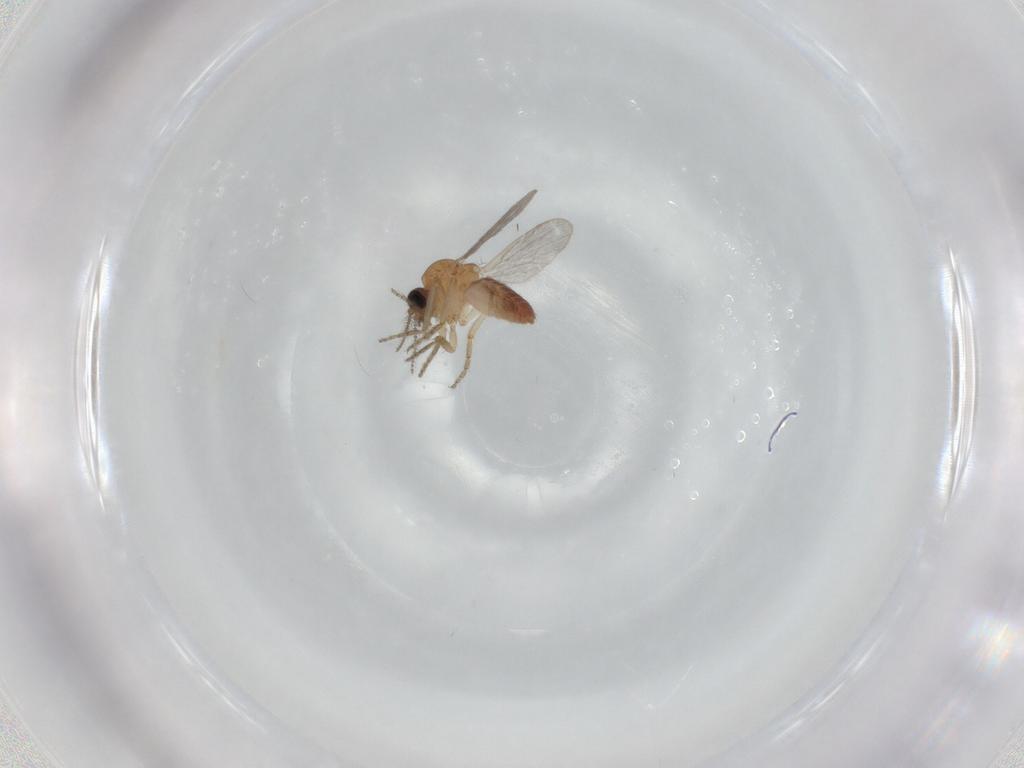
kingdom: Animalia
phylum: Arthropoda
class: Insecta
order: Diptera
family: Ceratopogonidae
